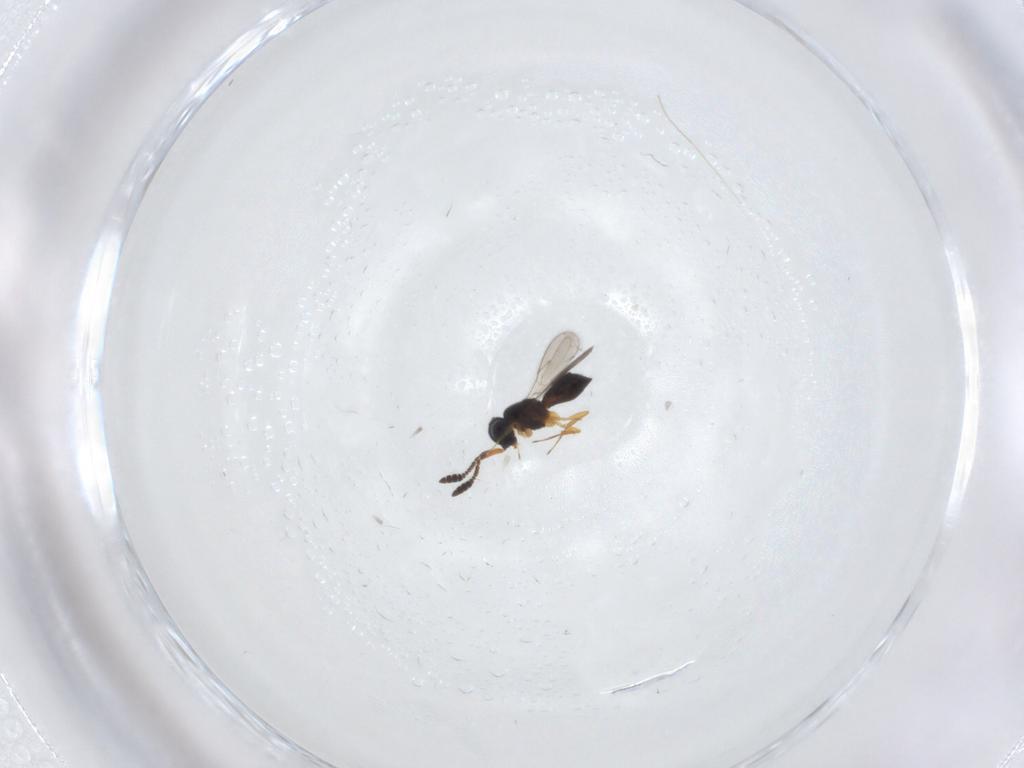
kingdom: Animalia
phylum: Arthropoda
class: Insecta
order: Hymenoptera
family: Scelionidae
